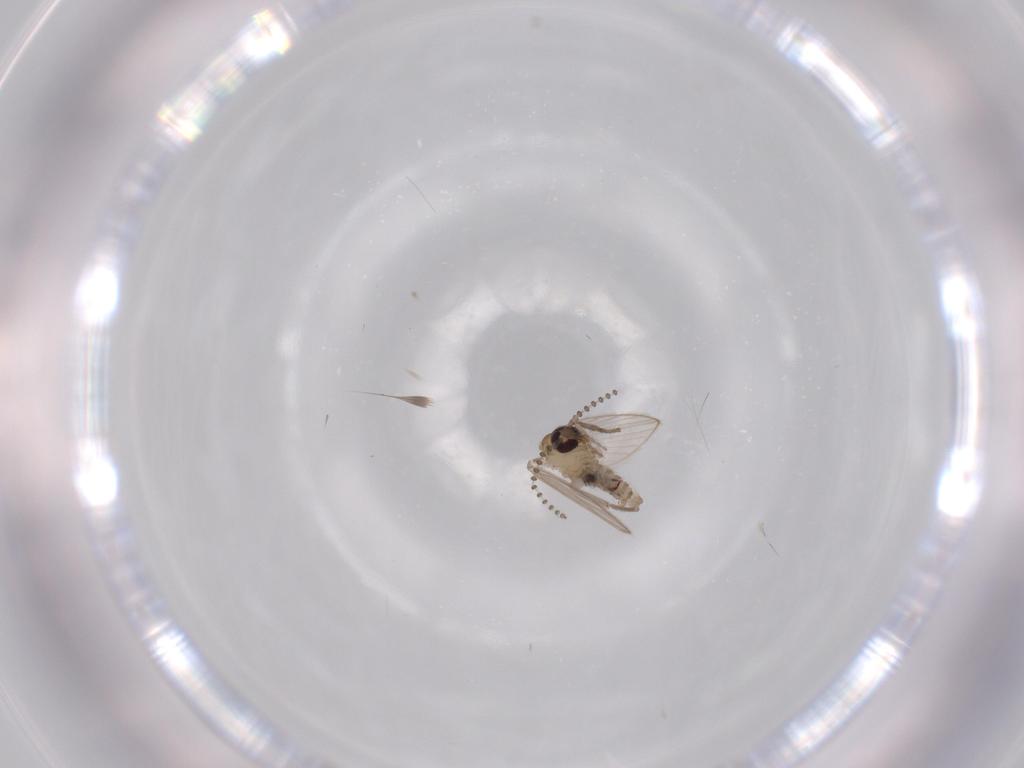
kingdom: Animalia
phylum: Arthropoda
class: Insecta
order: Diptera
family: Psychodidae
